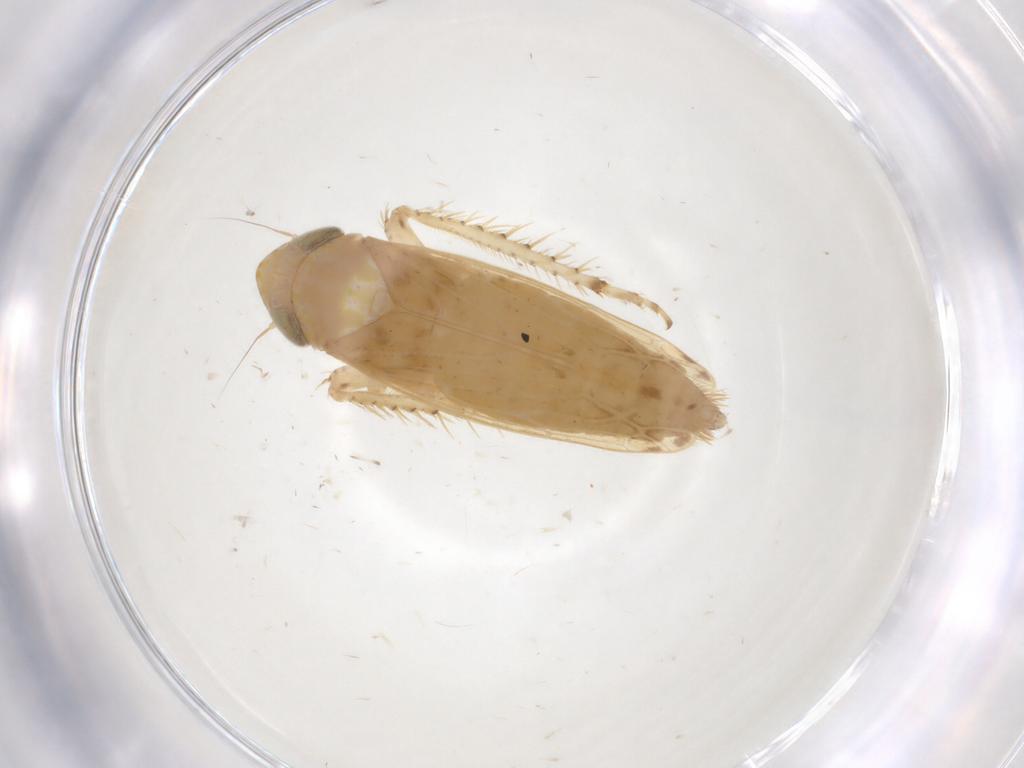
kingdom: Animalia
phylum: Arthropoda
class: Insecta
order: Hemiptera
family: Cicadellidae
